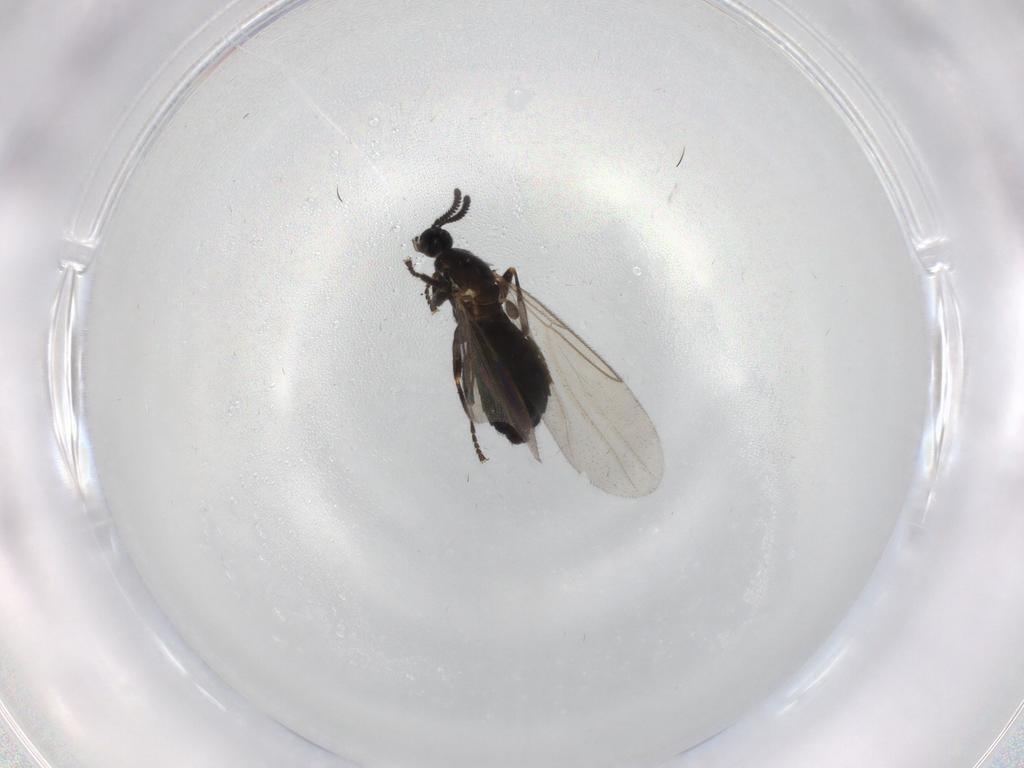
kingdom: Animalia
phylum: Arthropoda
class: Insecta
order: Diptera
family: Scatopsidae
